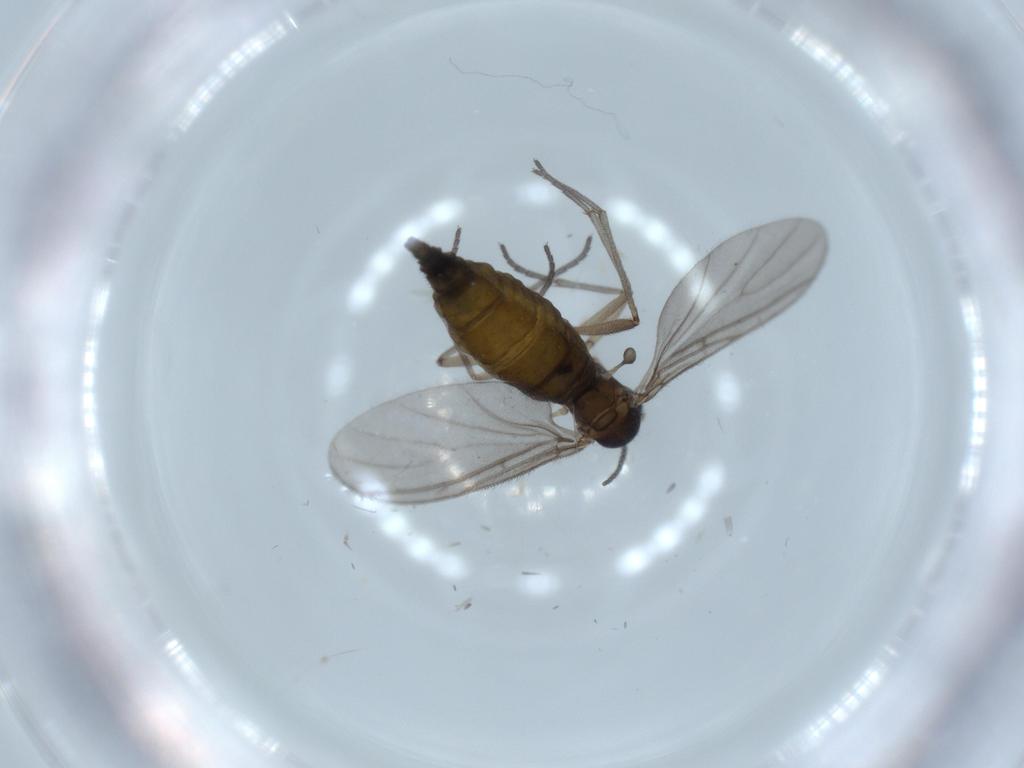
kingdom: Animalia
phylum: Arthropoda
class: Insecta
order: Diptera
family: Sciaridae
